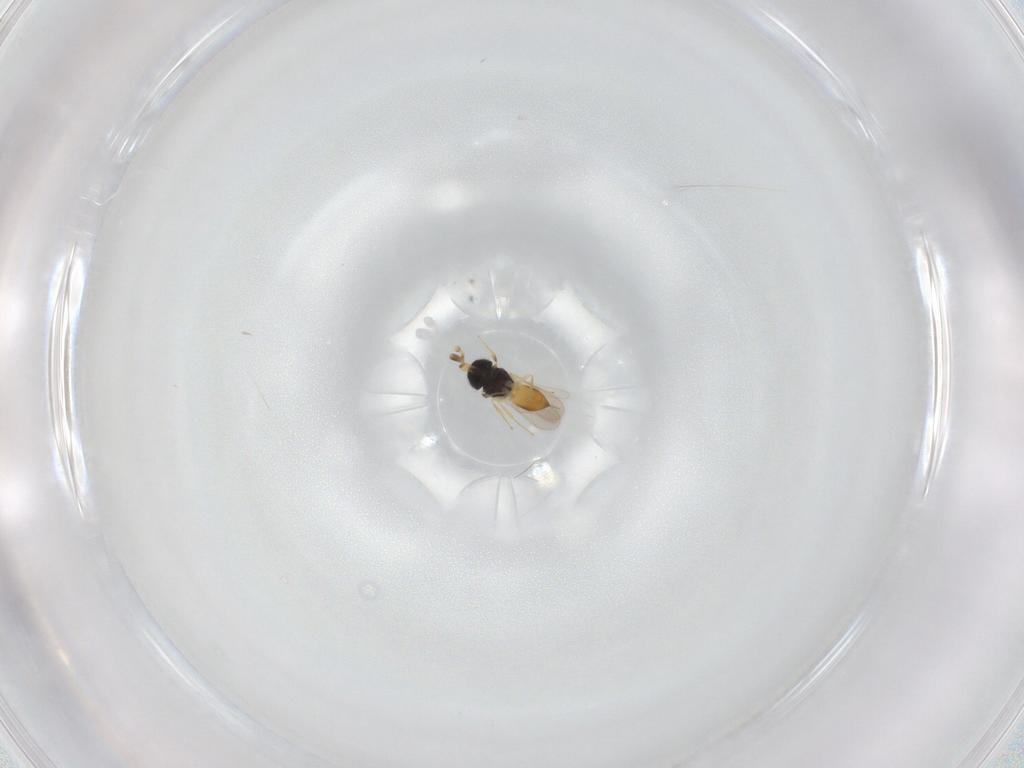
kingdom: Animalia
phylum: Arthropoda
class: Insecta
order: Hymenoptera
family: Scelionidae
